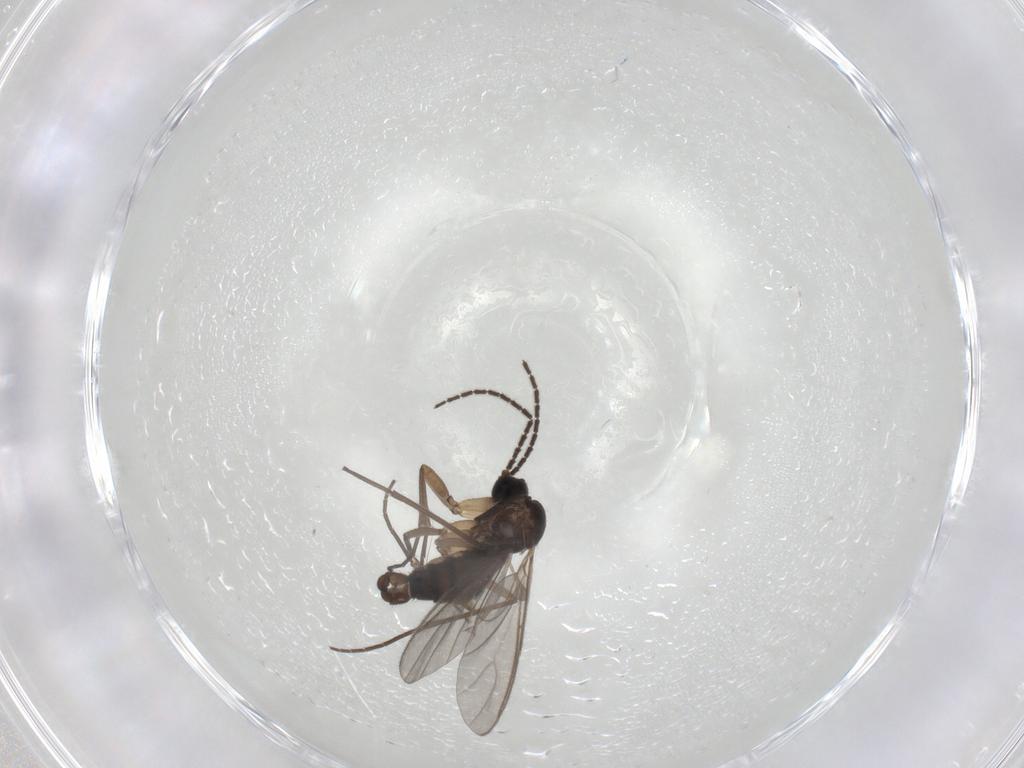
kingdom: Animalia
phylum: Arthropoda
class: Insecta
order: Diptera
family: Sciaridae
